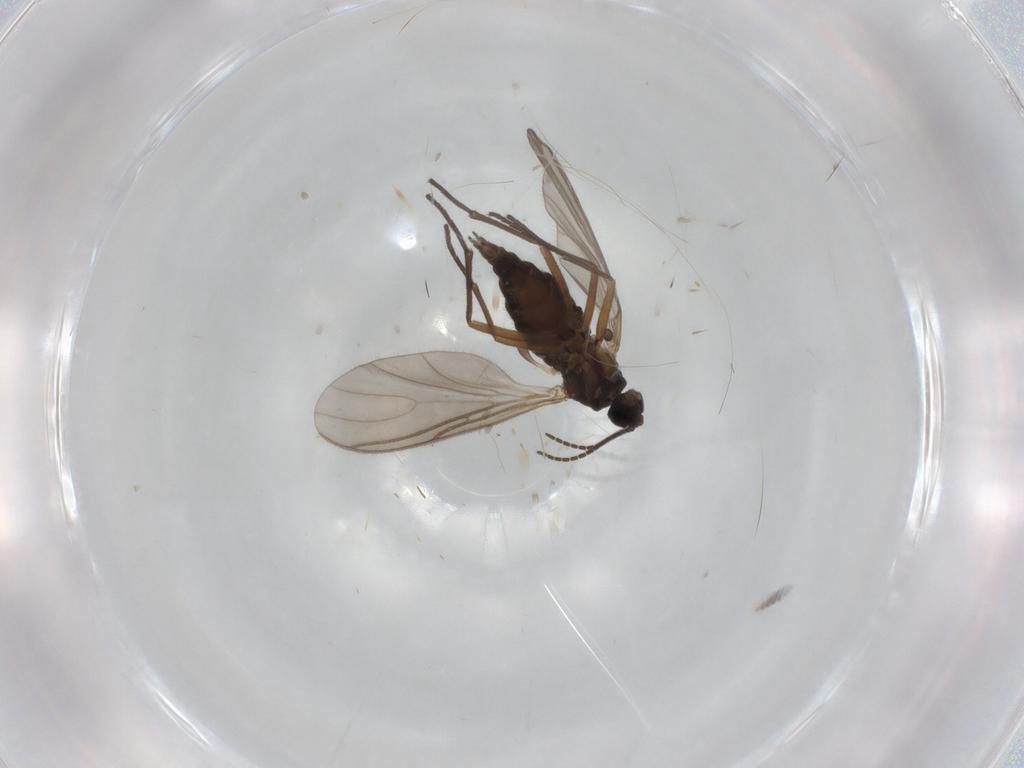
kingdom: Animalia
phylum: Arthropoda
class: Insecta
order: Diptera
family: Sciaridae
